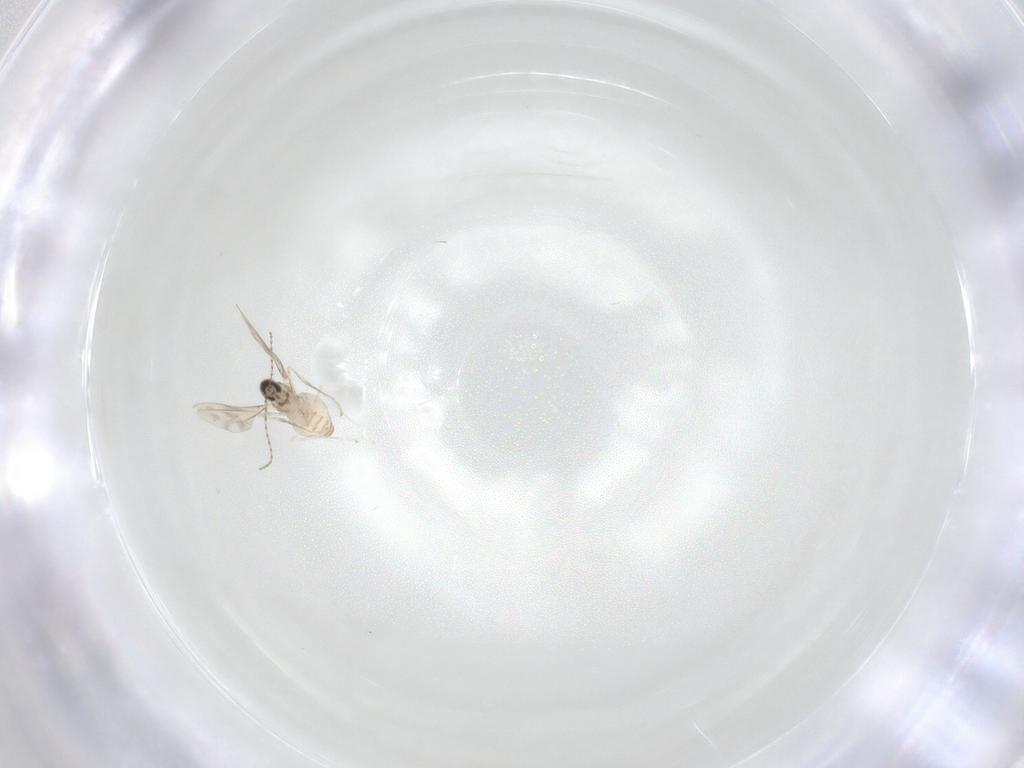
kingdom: Animalia
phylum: Arthropoda
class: Insecta
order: Diptera
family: Cecidomyiidae
